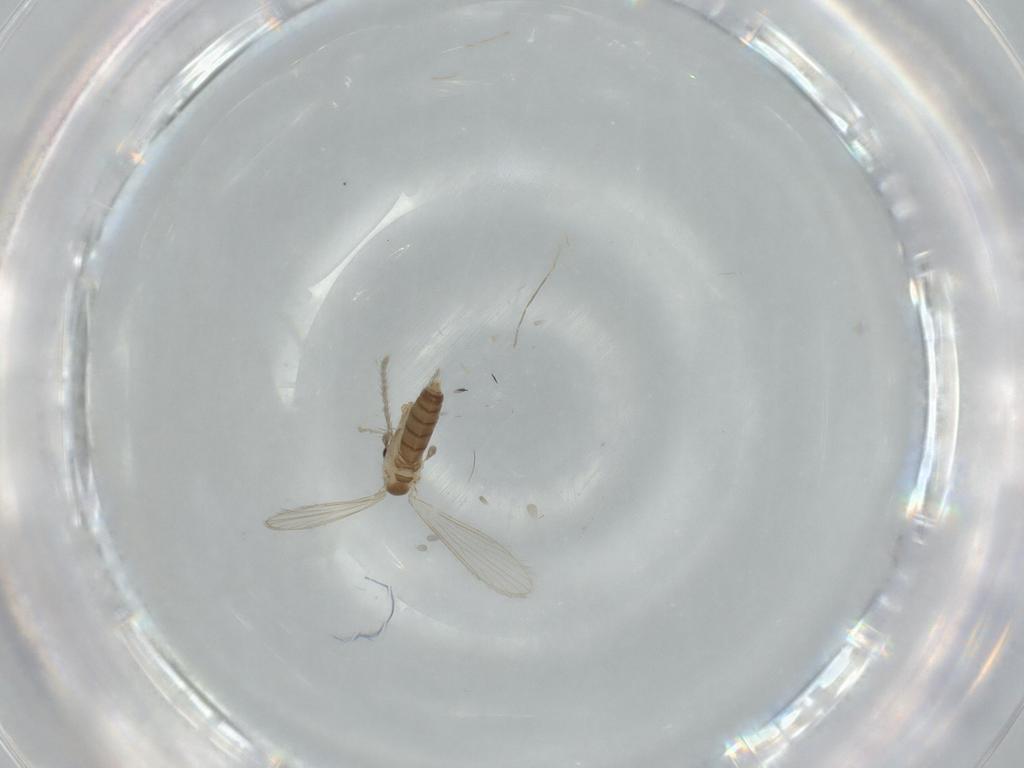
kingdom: Animalia
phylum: Arthropoda
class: Insecta
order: Diptera
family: Psychodidae
